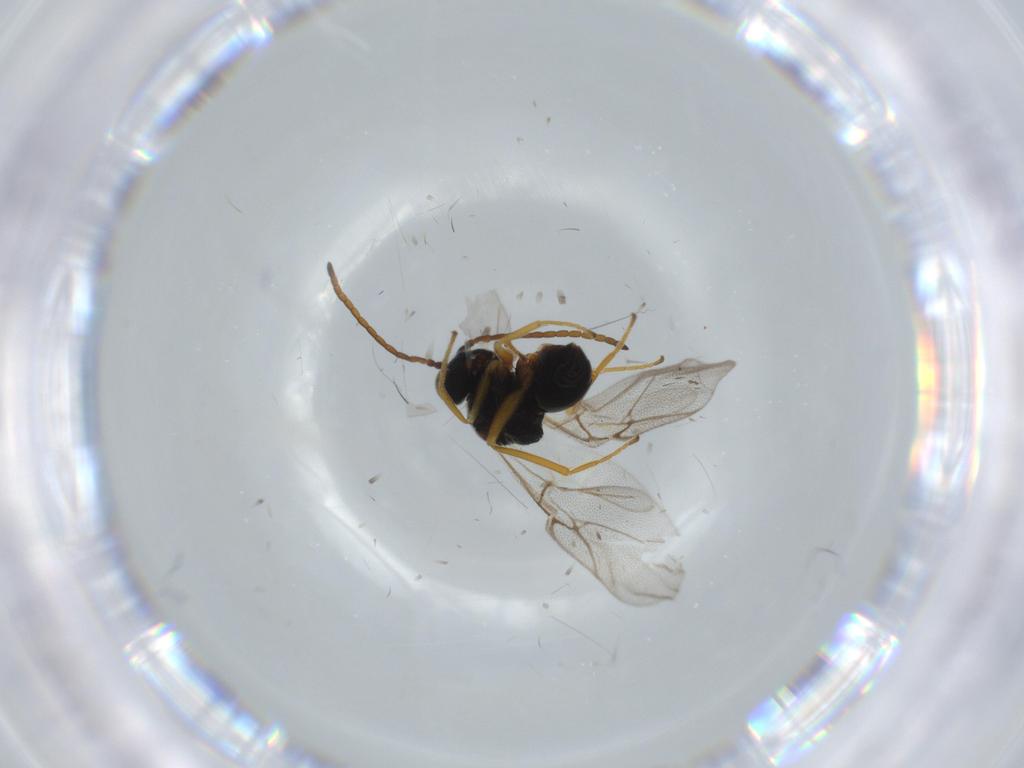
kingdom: Animalia
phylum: Arthropoda
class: Insecta
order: Hymenoptera
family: Cynipidae
